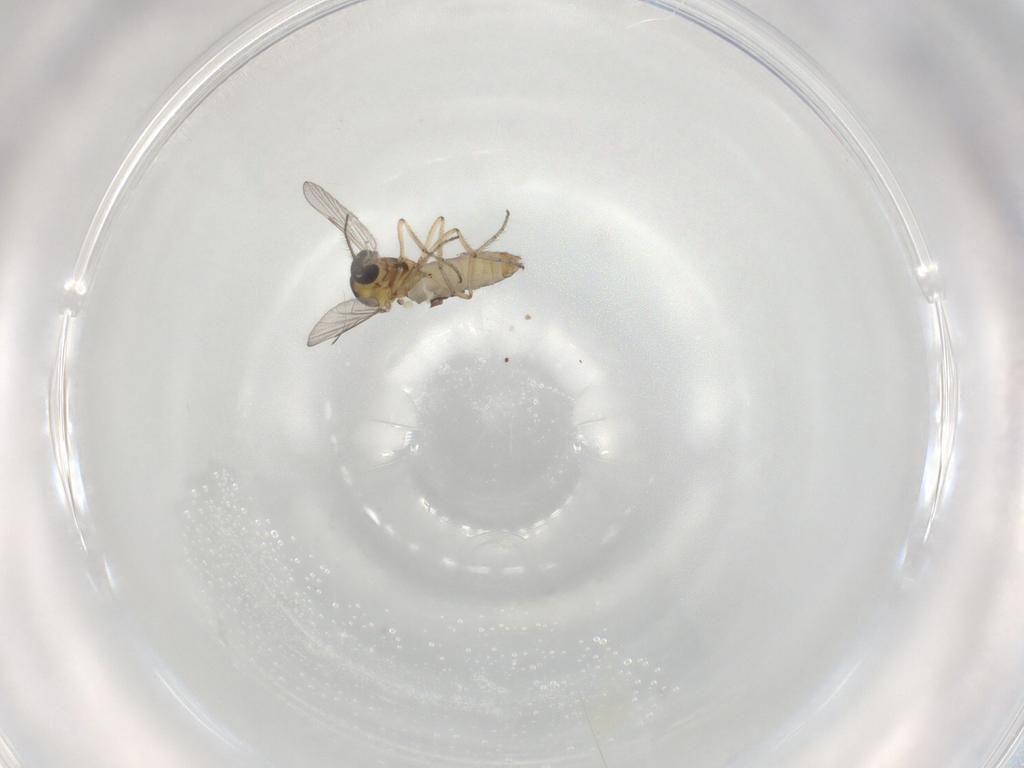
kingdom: Animalia
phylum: Arthropoda
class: Insecta
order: Diptera
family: Ceratopogonidae
